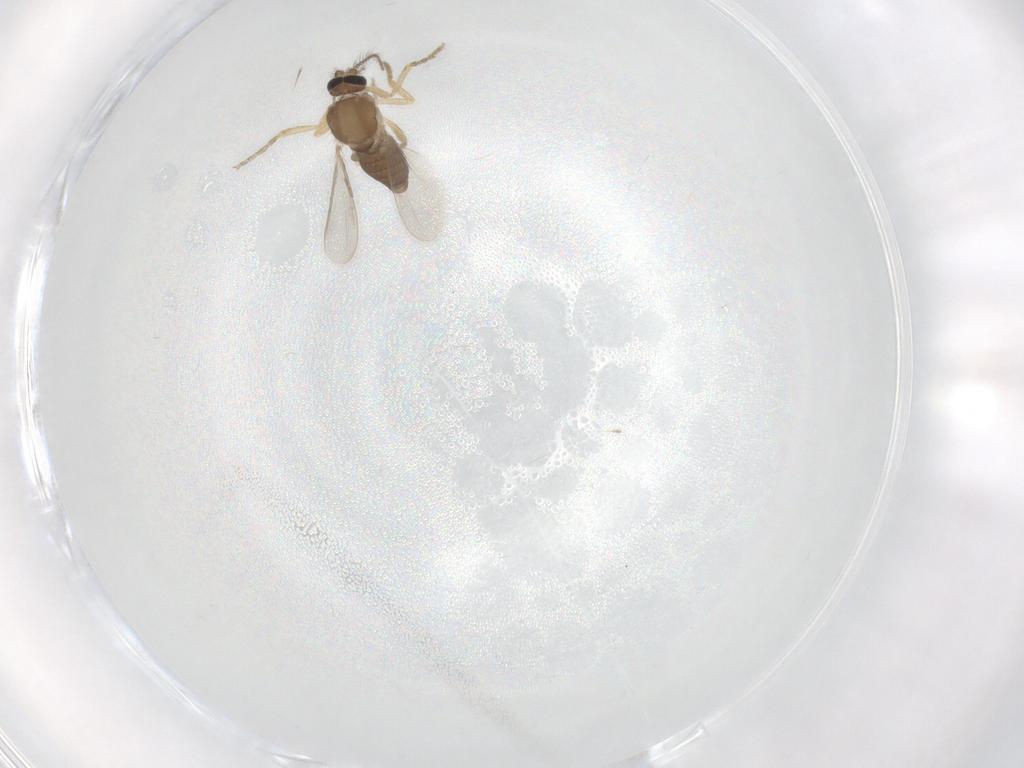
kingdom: Animalia
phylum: Arthropoda
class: Insecta
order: Diptera
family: Ceratopogonidae
